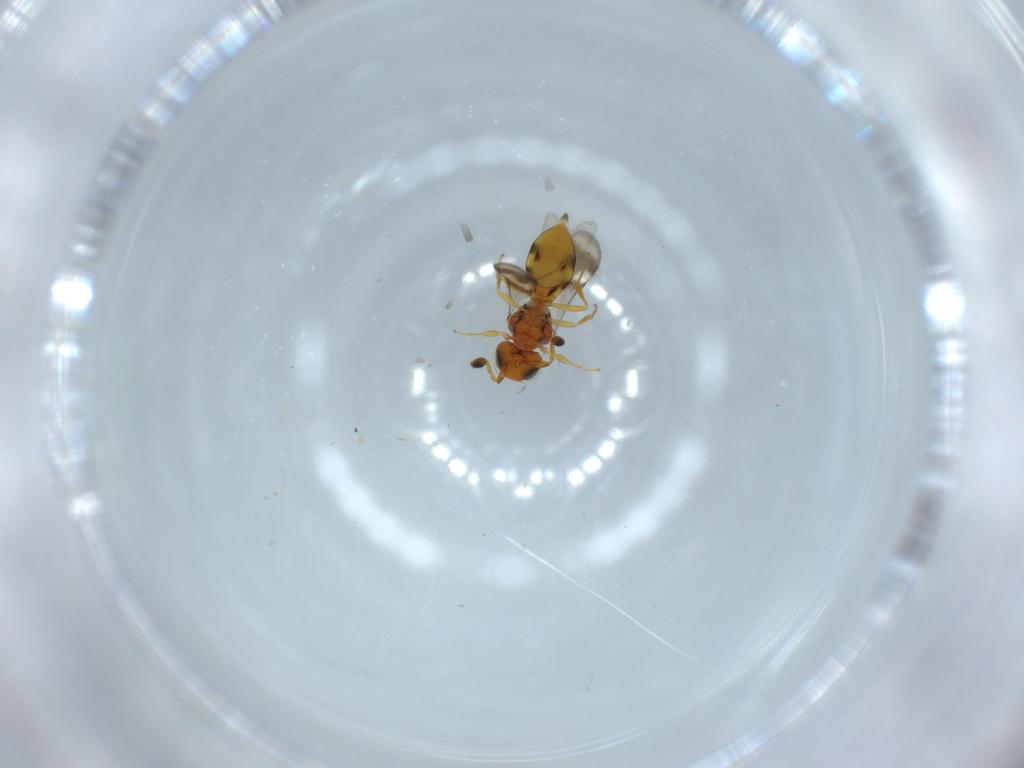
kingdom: Animalia
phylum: Arthropoda
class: Insecta
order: Hymenoptera
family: Scelionidae
